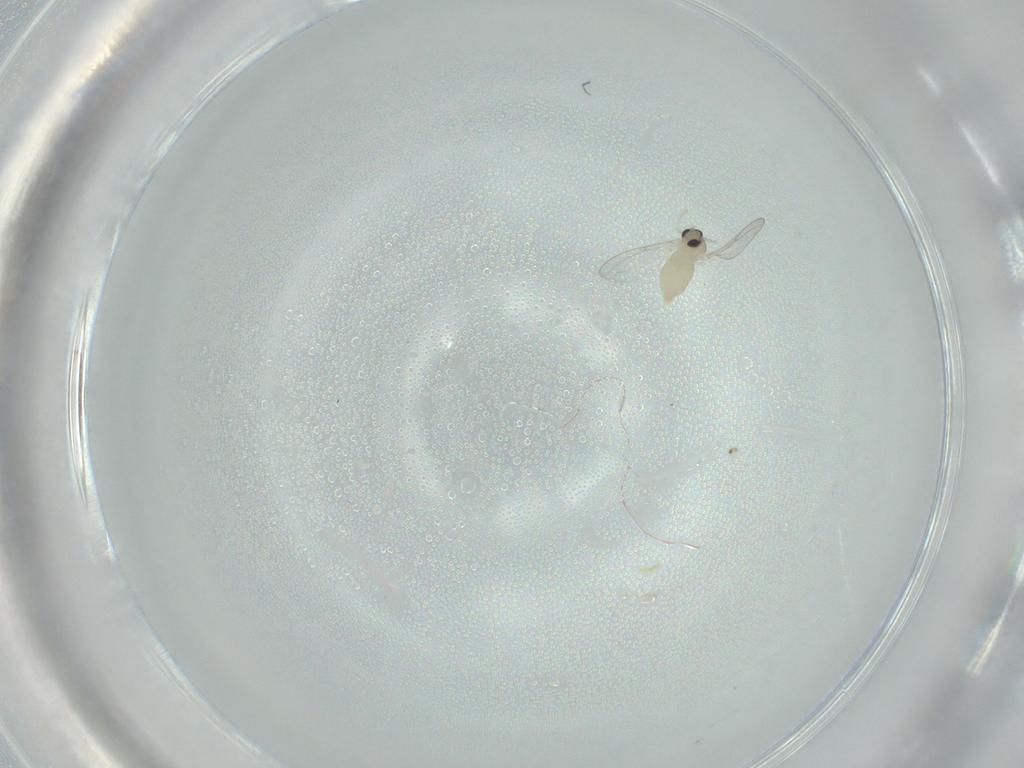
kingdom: Animalia
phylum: Arthropoda
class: Insecta
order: Diptera
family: Cecidomyiidae
